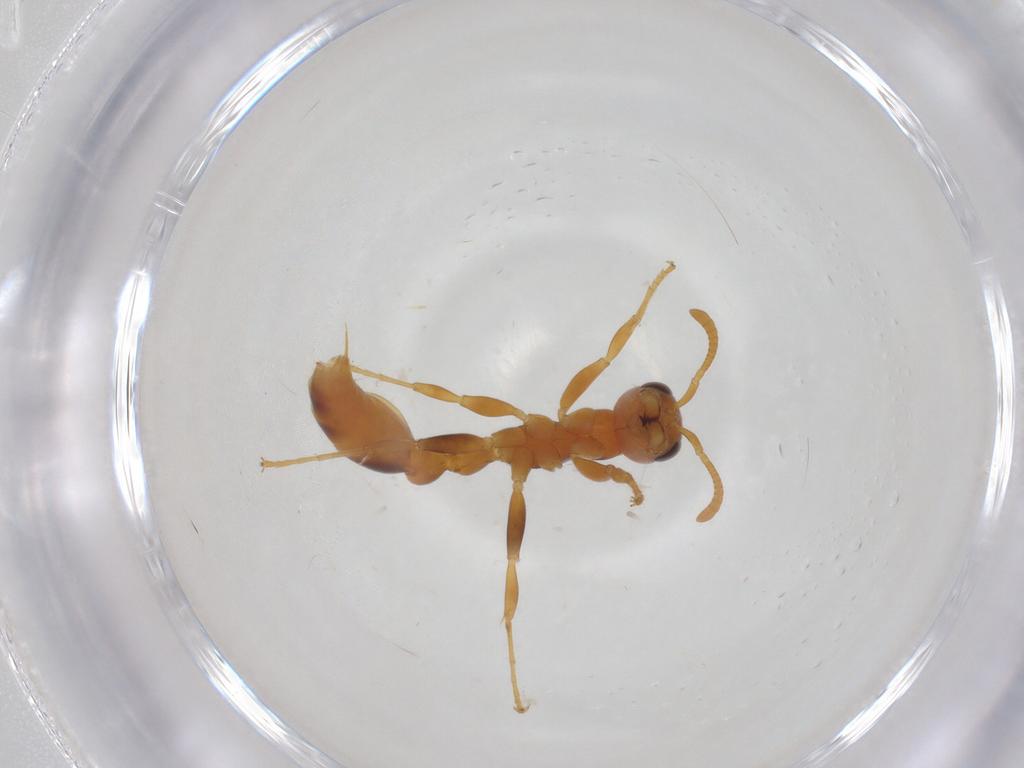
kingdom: Animalia
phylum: Arthropoda
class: Insecta
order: Hymenoptera
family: Formicidae
